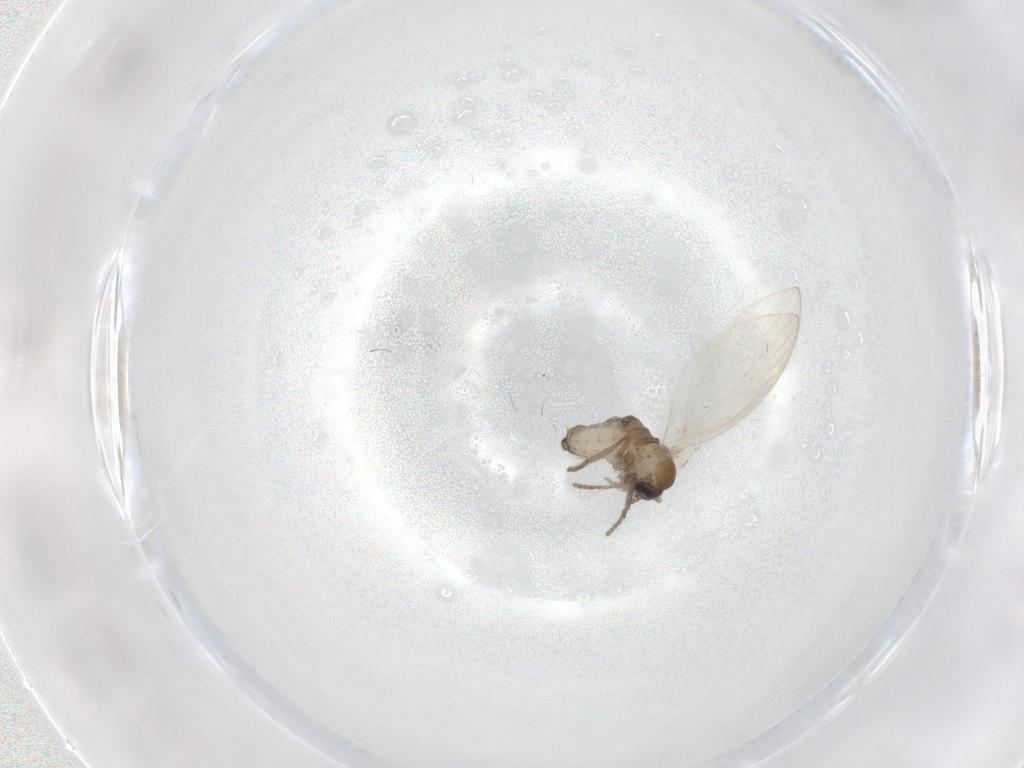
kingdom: Animalia
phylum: Arthropoda
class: Insecta
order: Diptera
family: Psychodidae
